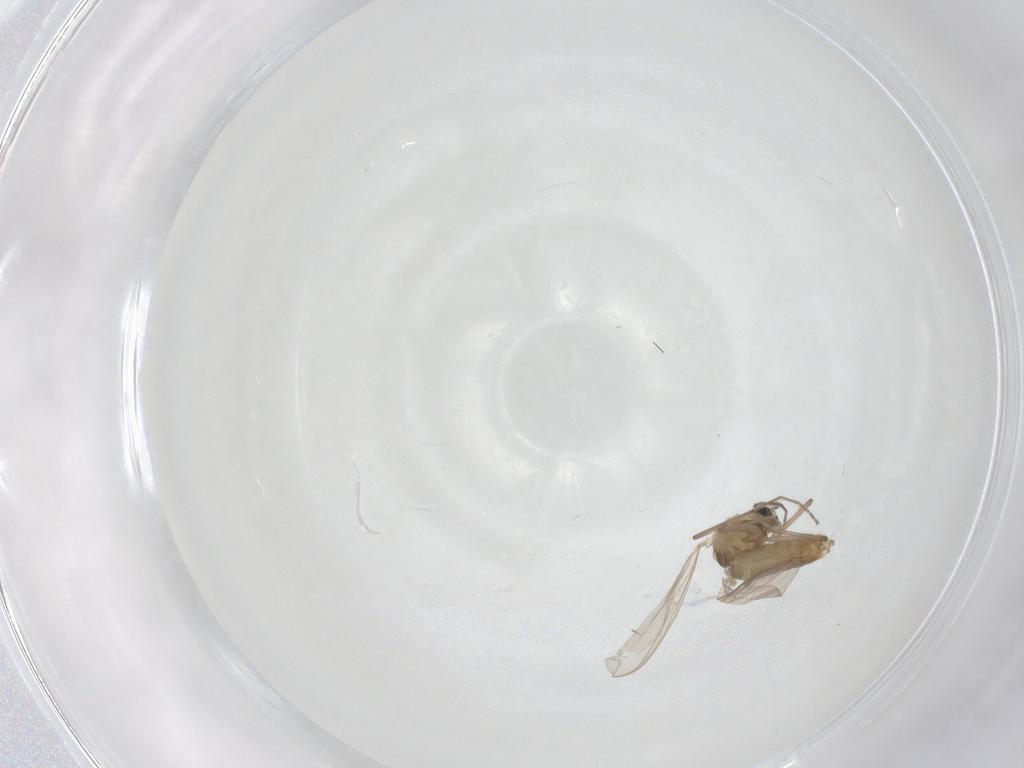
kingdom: Animalia
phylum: Arthropoda
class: Insecta
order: Diptera
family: Chironomidae
